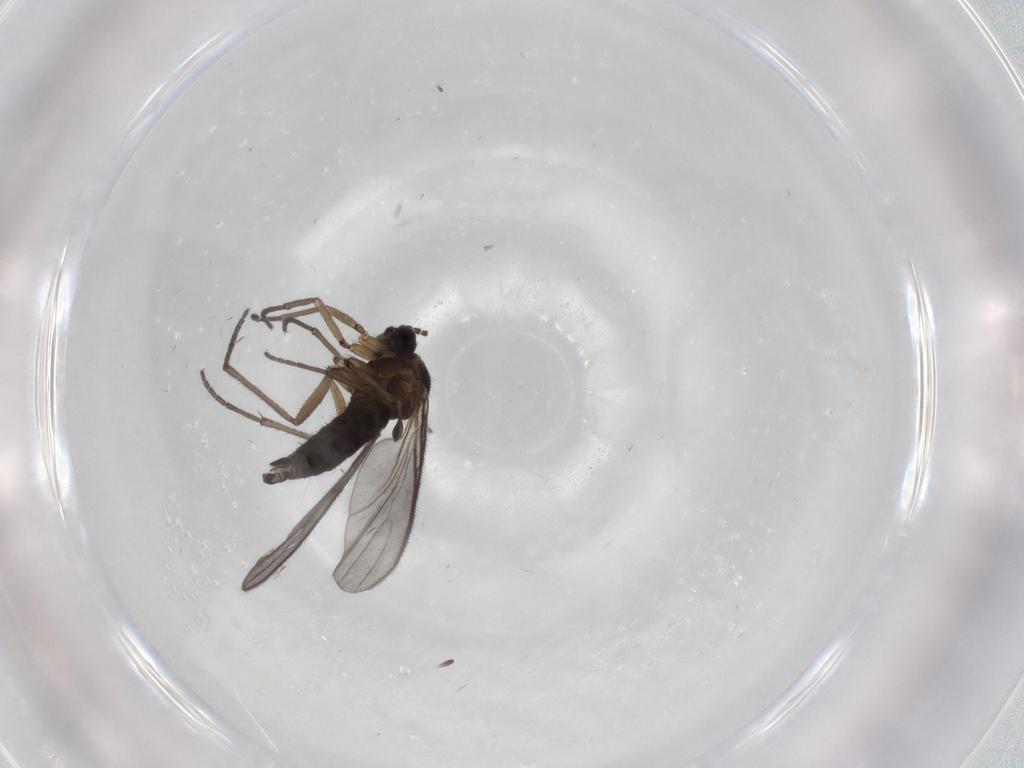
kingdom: Animalia
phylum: Arthropoda
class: Insecta
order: Diptera
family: Sciaridae
